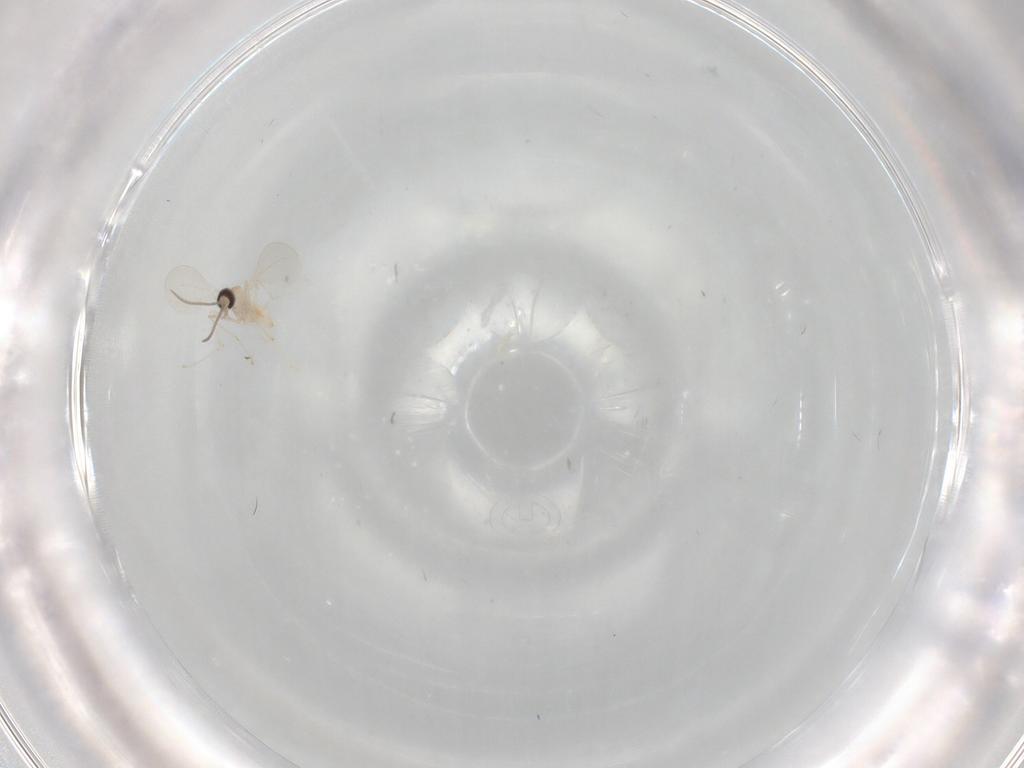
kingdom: Animalia
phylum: Arthropoda
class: Insecta
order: Diptera
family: Cecidomyiidae
